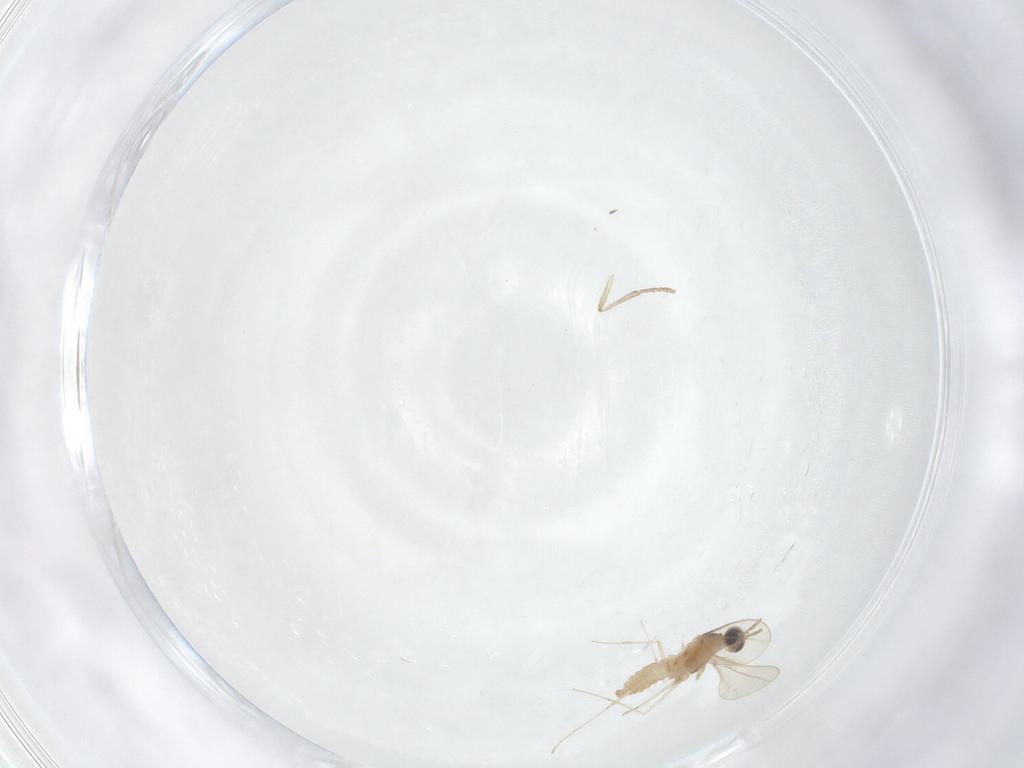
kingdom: Animalia
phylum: Arthropoda
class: Insecta
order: Diptera
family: Cecidomyiidae
